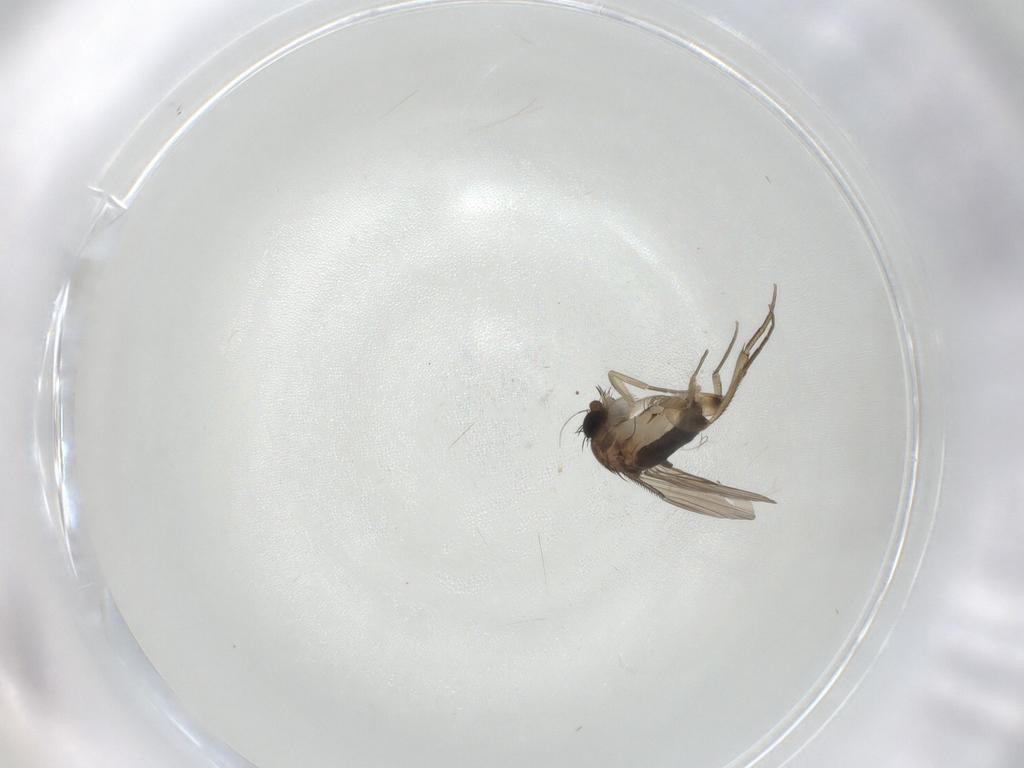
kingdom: Animalia
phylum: Arthropoda
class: Insecta
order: Diptera
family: Phoridae
